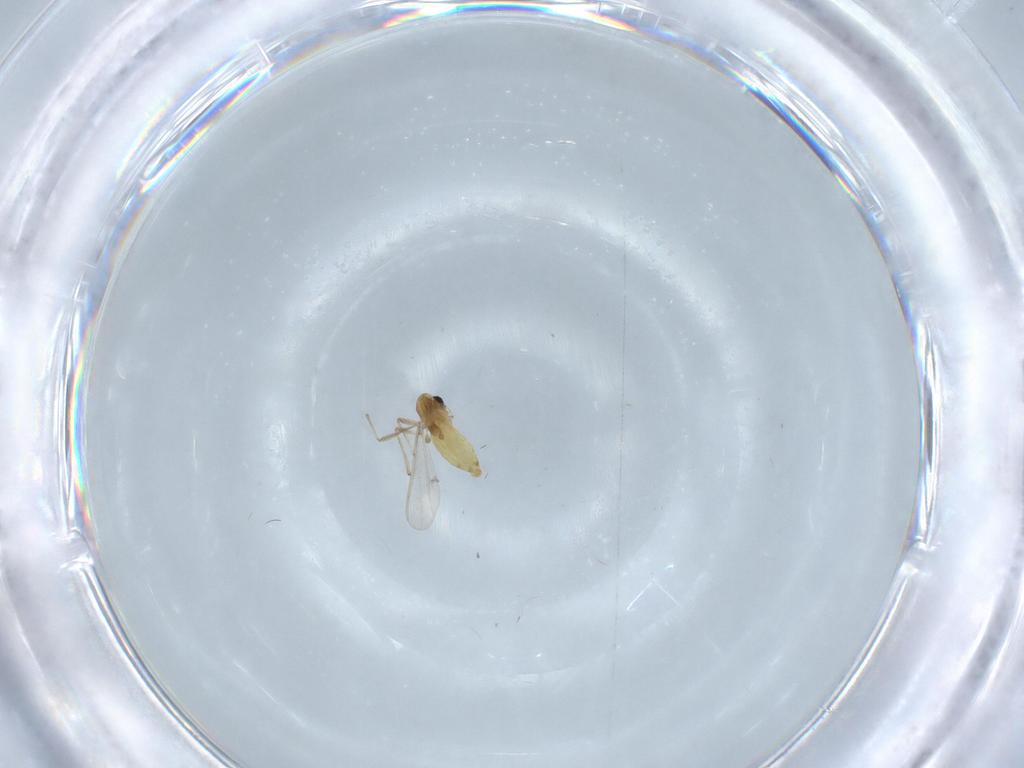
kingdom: Animalia
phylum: Arthropoda
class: Insecta
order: Diptera
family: Chironomidae
